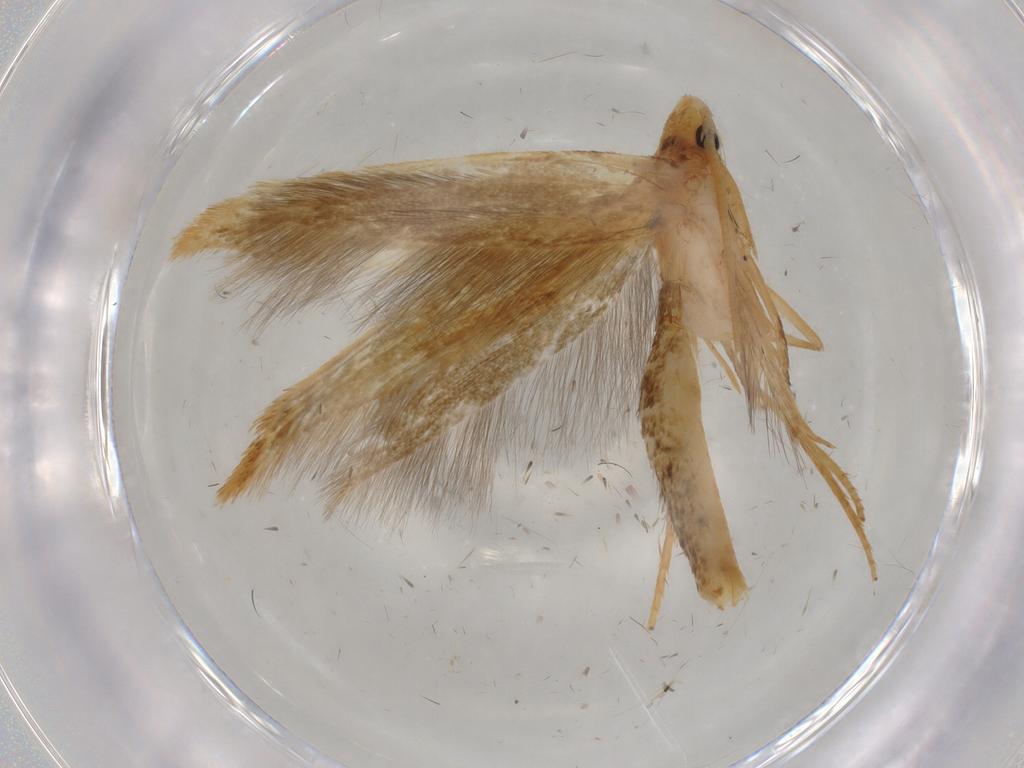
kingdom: Animalia
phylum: Arthropoda
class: Insecta
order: Lepidoptera
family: Tineidae
